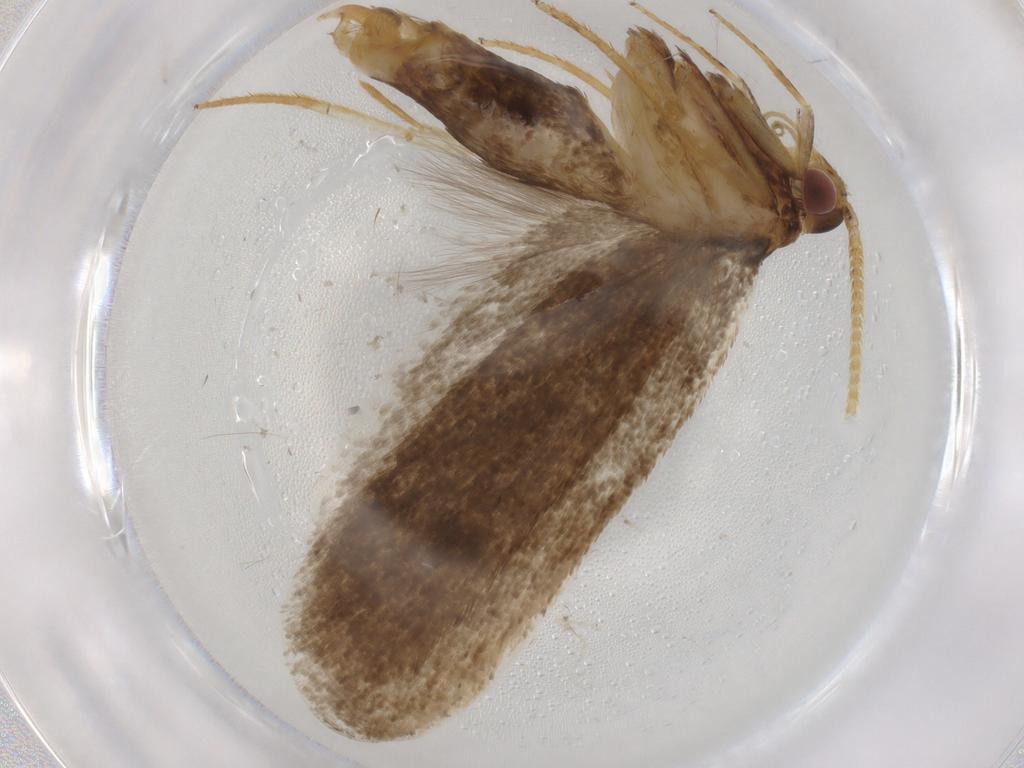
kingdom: Animalia
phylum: Arthropoda
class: Insecta
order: Lepidoptera
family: Lecithoceridae
